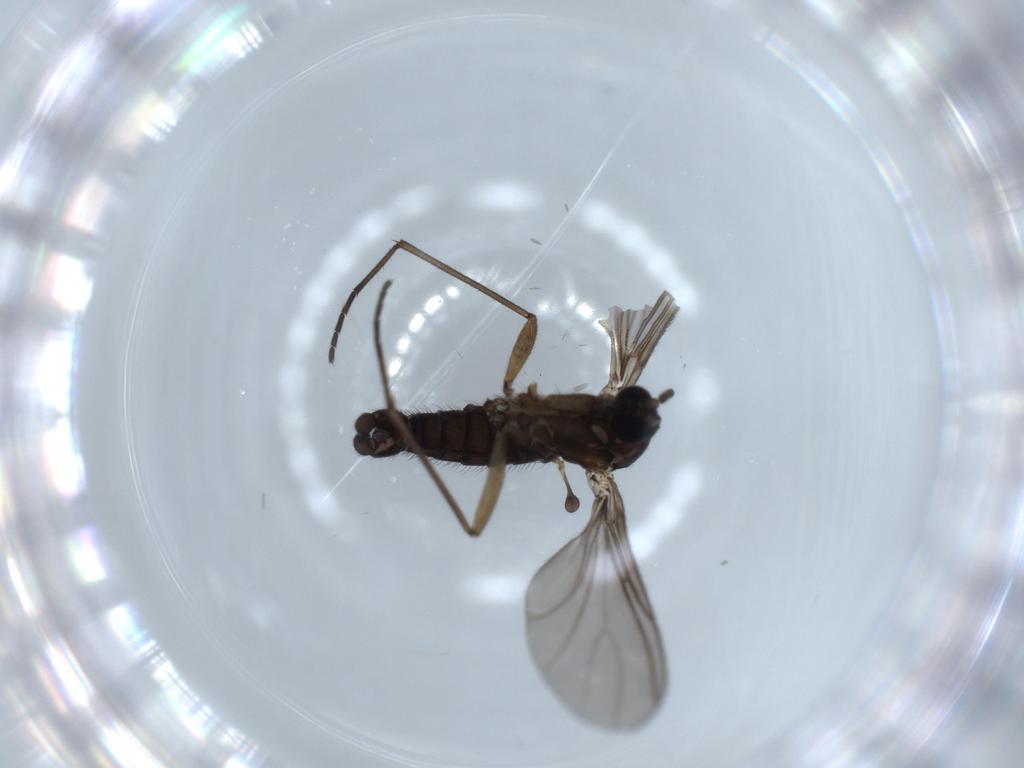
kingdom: Animalia
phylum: Arthropoda
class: Insecta
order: Diptera
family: Sciaridae
